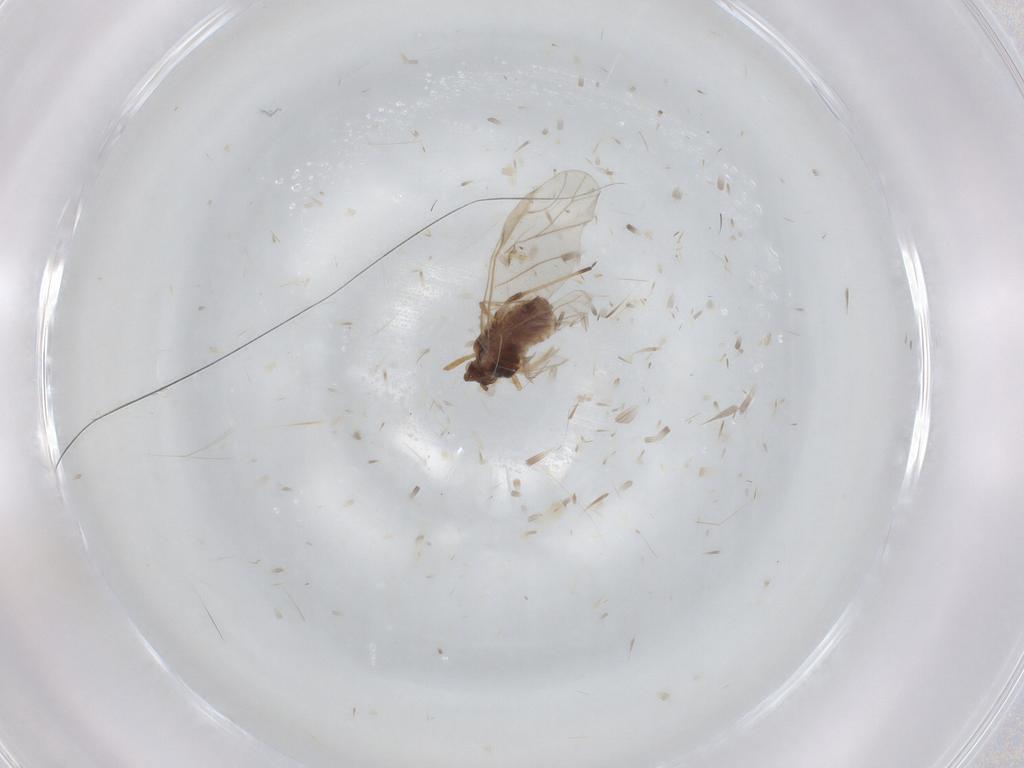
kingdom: Animalia
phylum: Arthropoda
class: Insecta
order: Hemiptera
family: Aphididae
